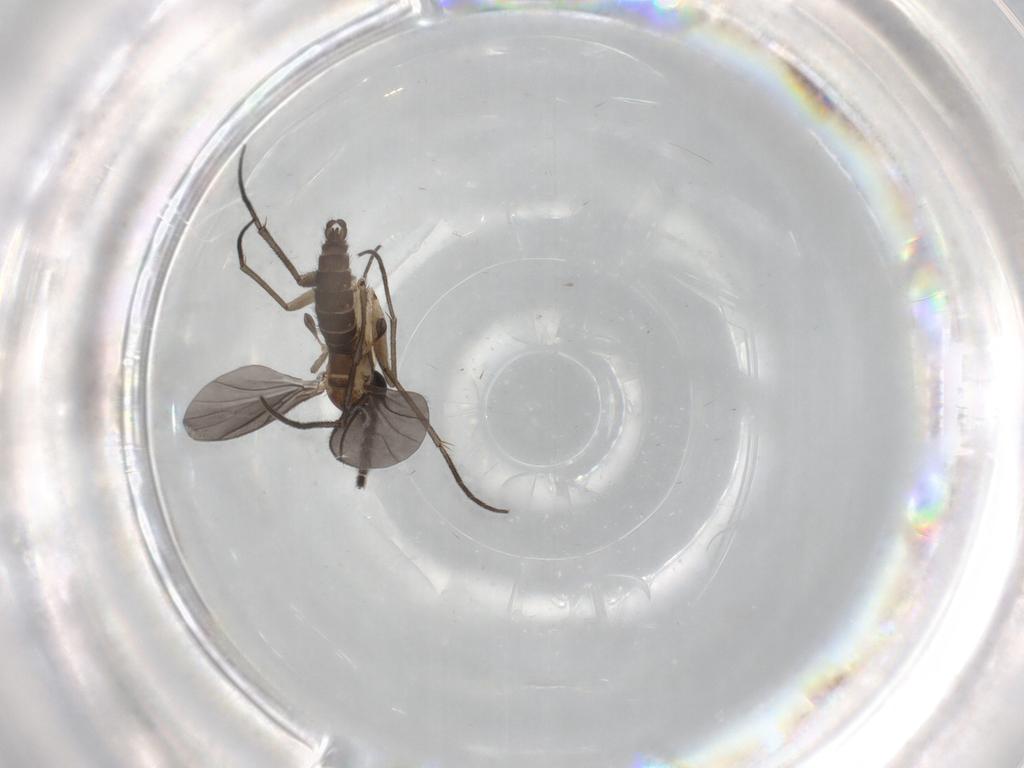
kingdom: Animalia
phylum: Arthropoda
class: Insecta
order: Diptera
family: Sciaridae
